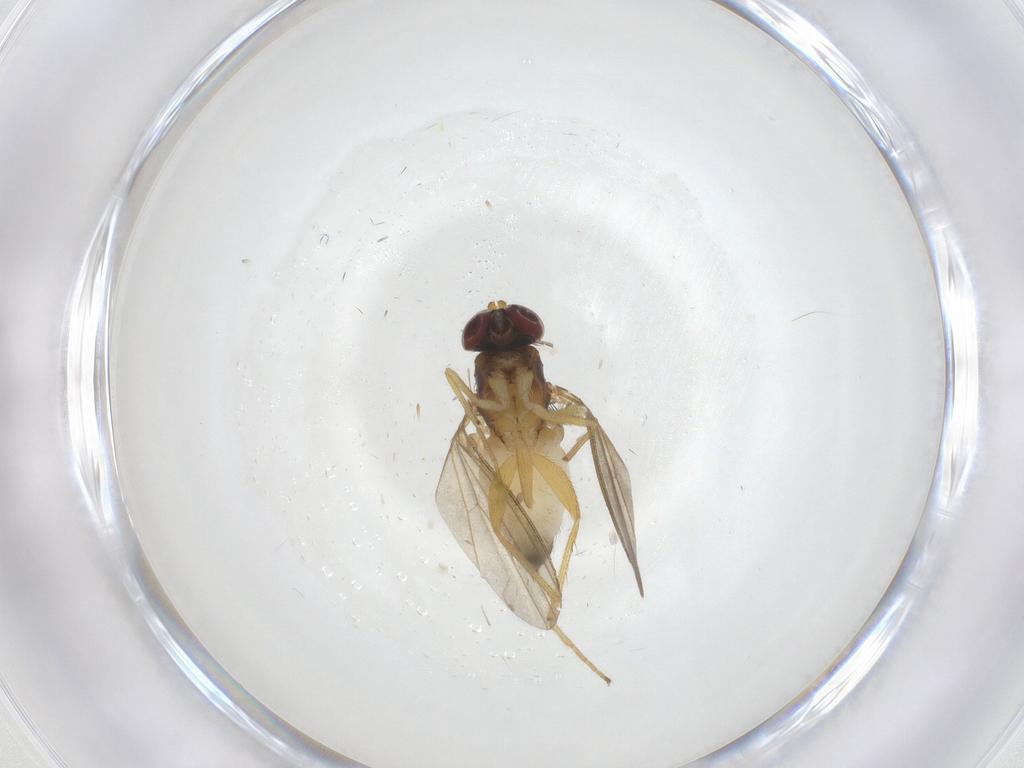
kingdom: Animalia
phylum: Arthropoda
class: Insecta
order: Diptera
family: Dolichopodidae
